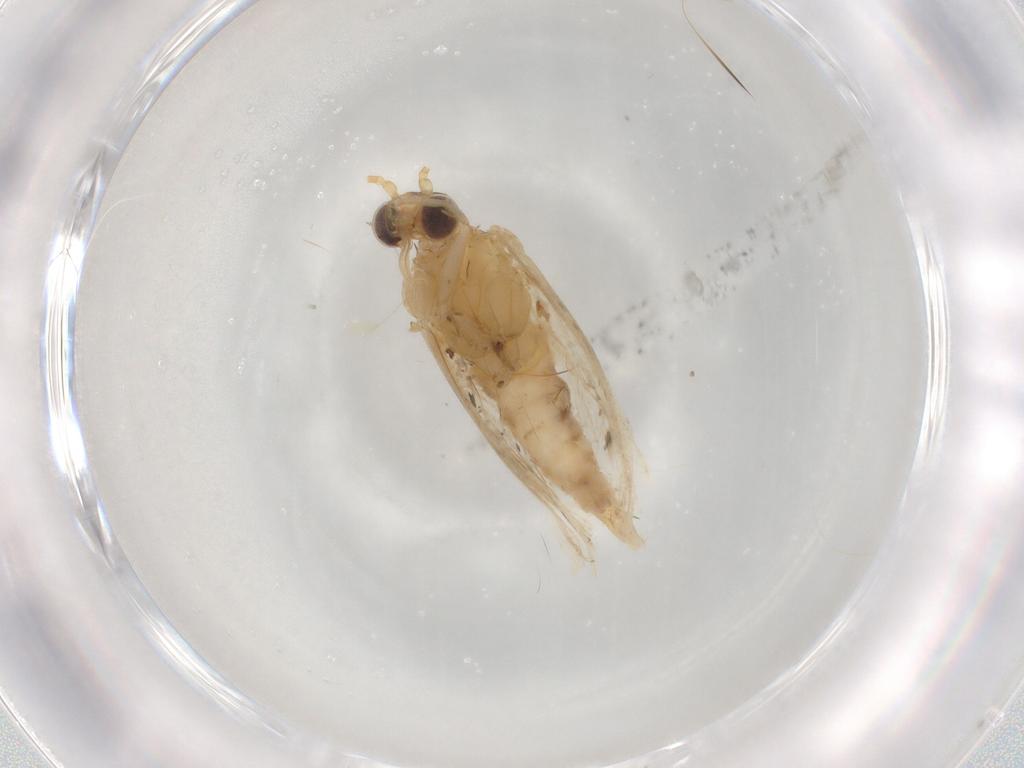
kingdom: Animalia
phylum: Arthropoda
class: Insecta
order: Lepidoptera
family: Tortricidae
